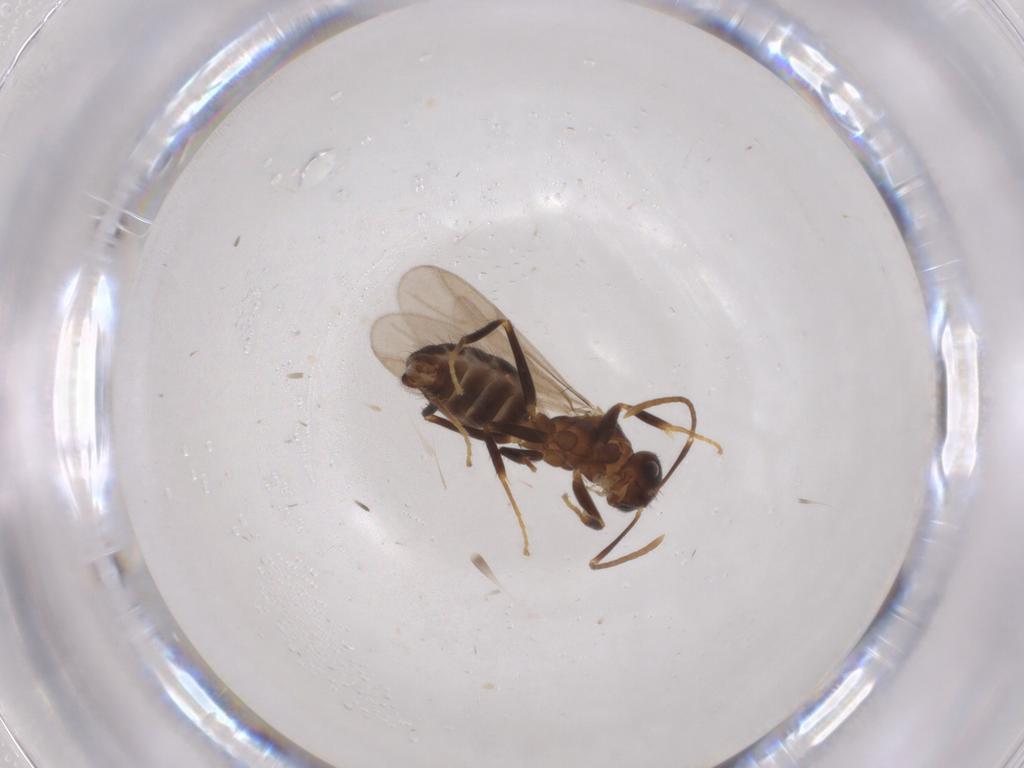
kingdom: Animalia
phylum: Arthropoda
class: Insecta
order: Hymenoptera
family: Formicidae
